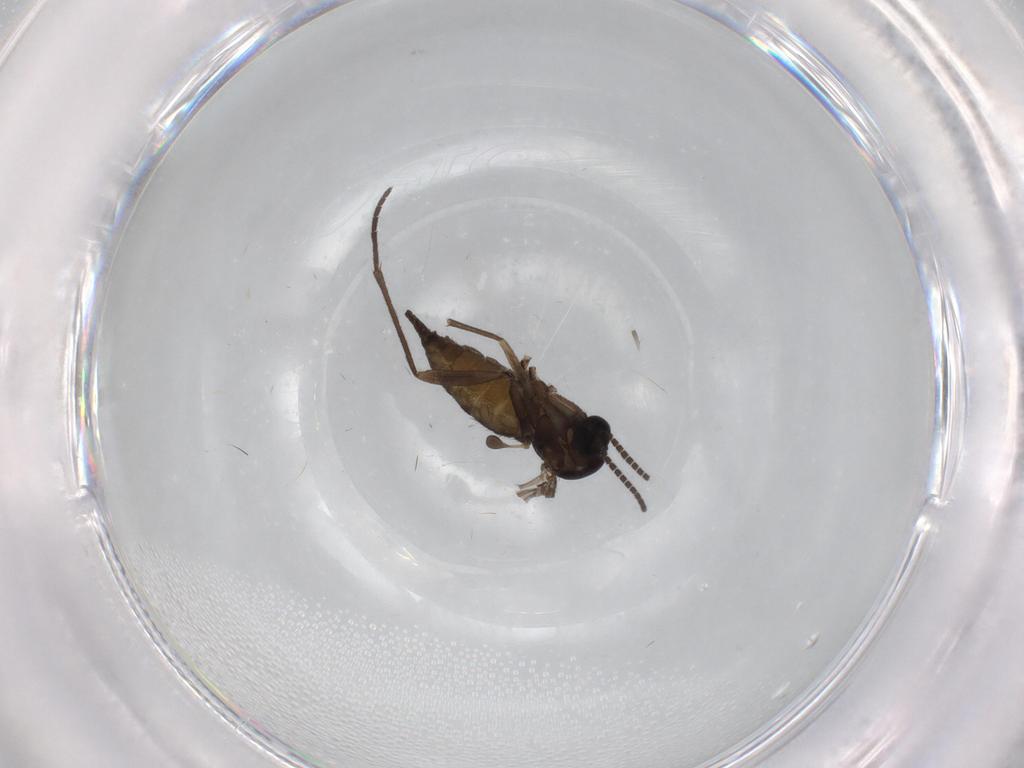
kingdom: Animalia
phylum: Arthropoda
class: Insecta
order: Diptera
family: Sciaridae
